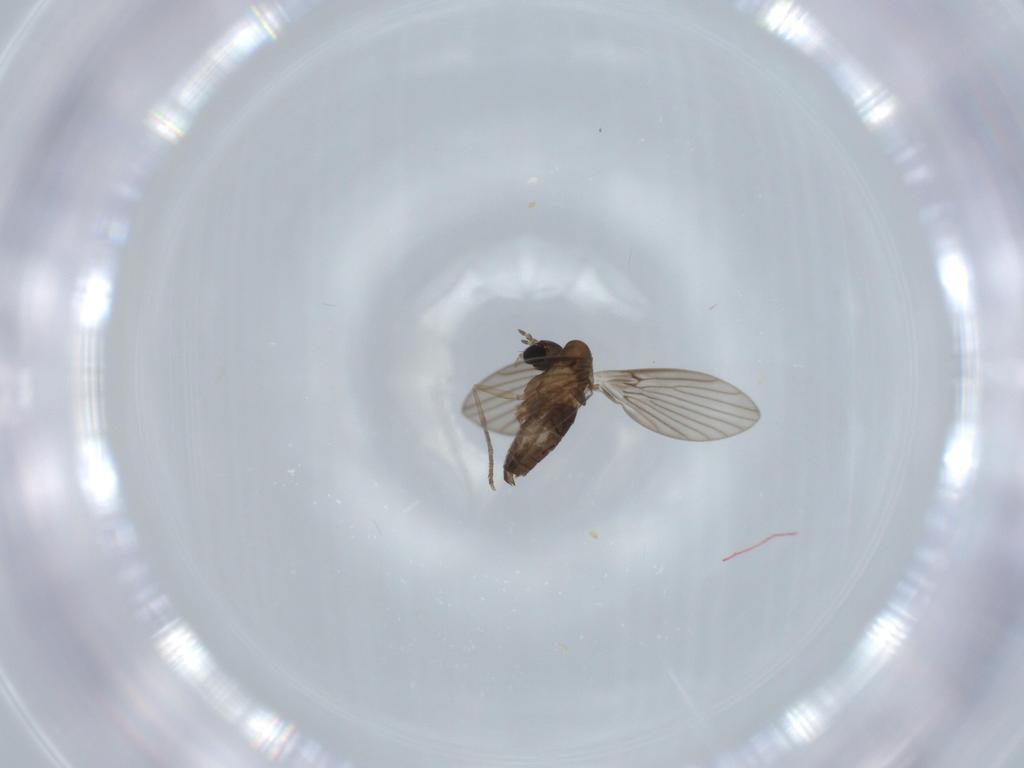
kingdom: Animalia
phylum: Arthropoda
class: Insecta
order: Diptera
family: Psychodidae
